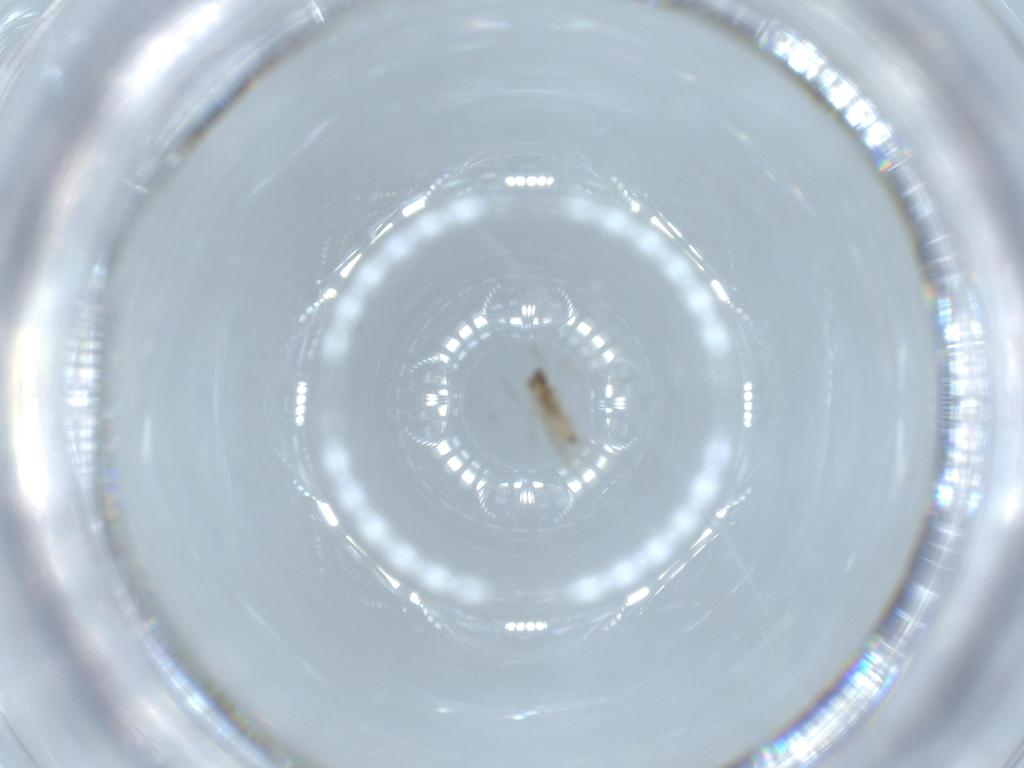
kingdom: Animalia
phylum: Arthropoda
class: Insecta
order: Diptera
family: Cecidomyiidae
